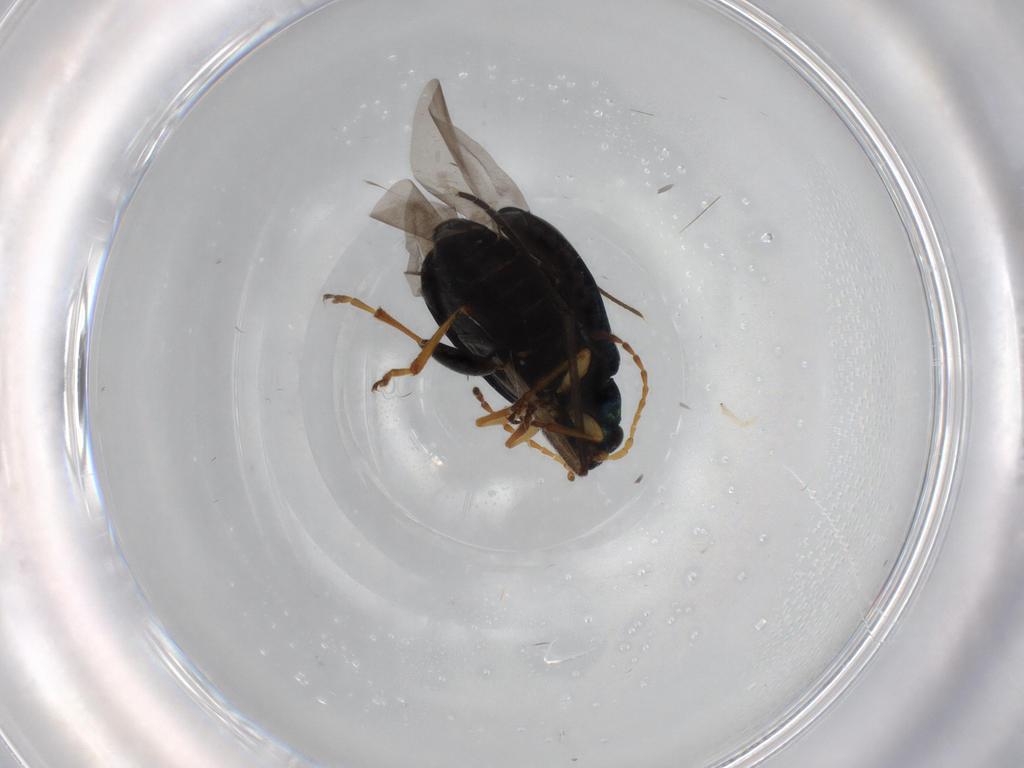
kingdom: Animalia
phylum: Arthropoda
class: Insecta
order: Coleoptera
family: Chrysomelidae
